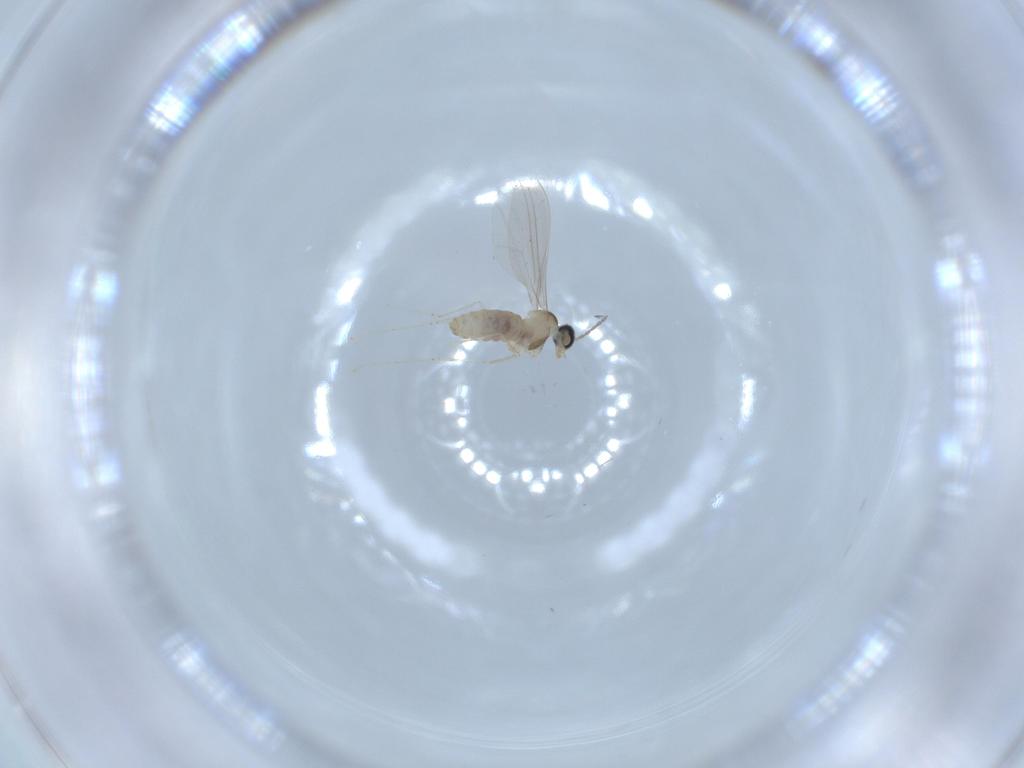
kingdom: Animalia
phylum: Arthropoda
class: Insecta
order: Diptera
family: Cecidomyiidae
